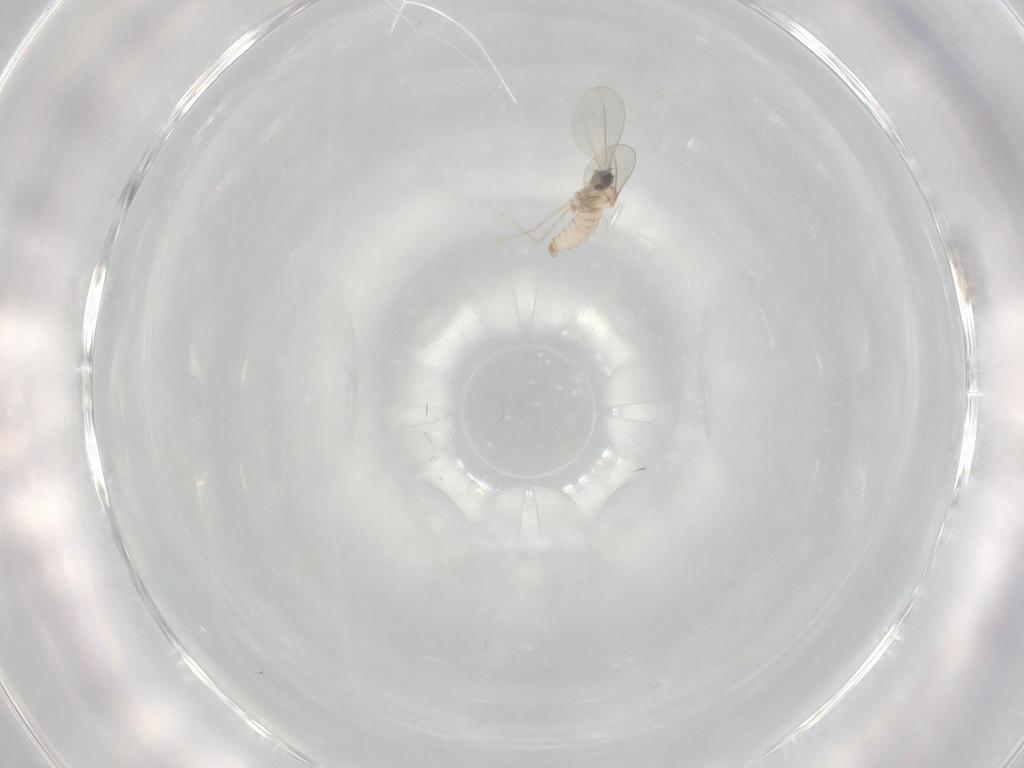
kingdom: Animalia
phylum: Arthropoda
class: Insecta
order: Diptera
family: Cecidomyiidae
